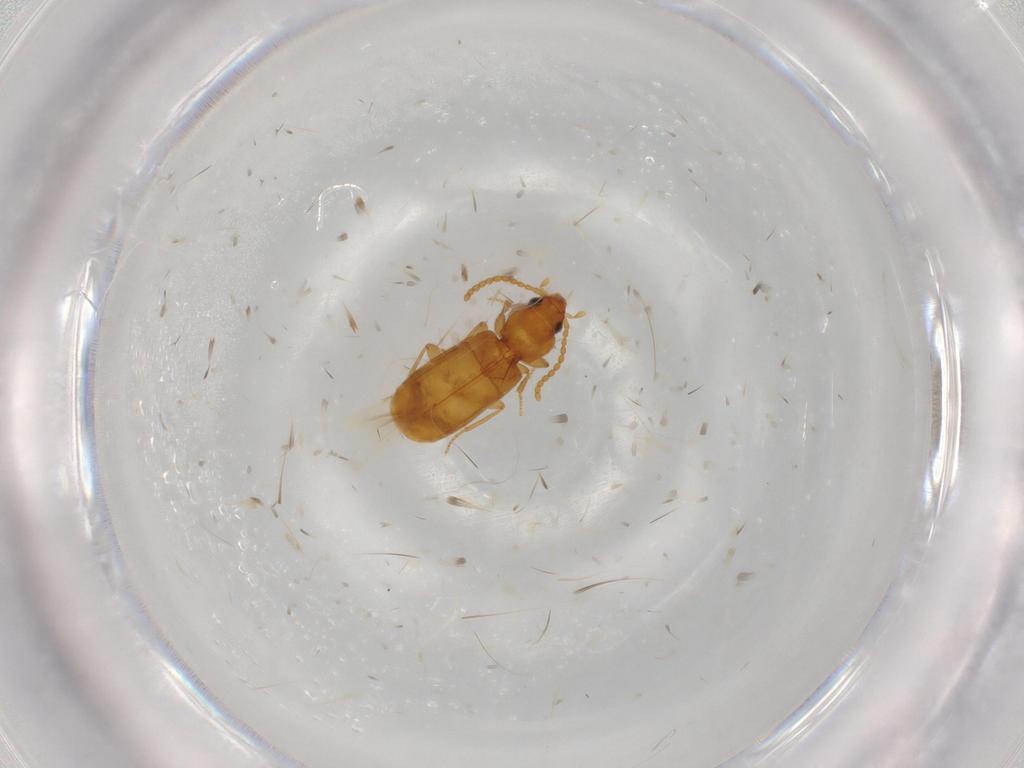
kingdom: Animalia
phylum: Arthropoda
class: Insecta
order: Coleoptera
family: Carabidae
